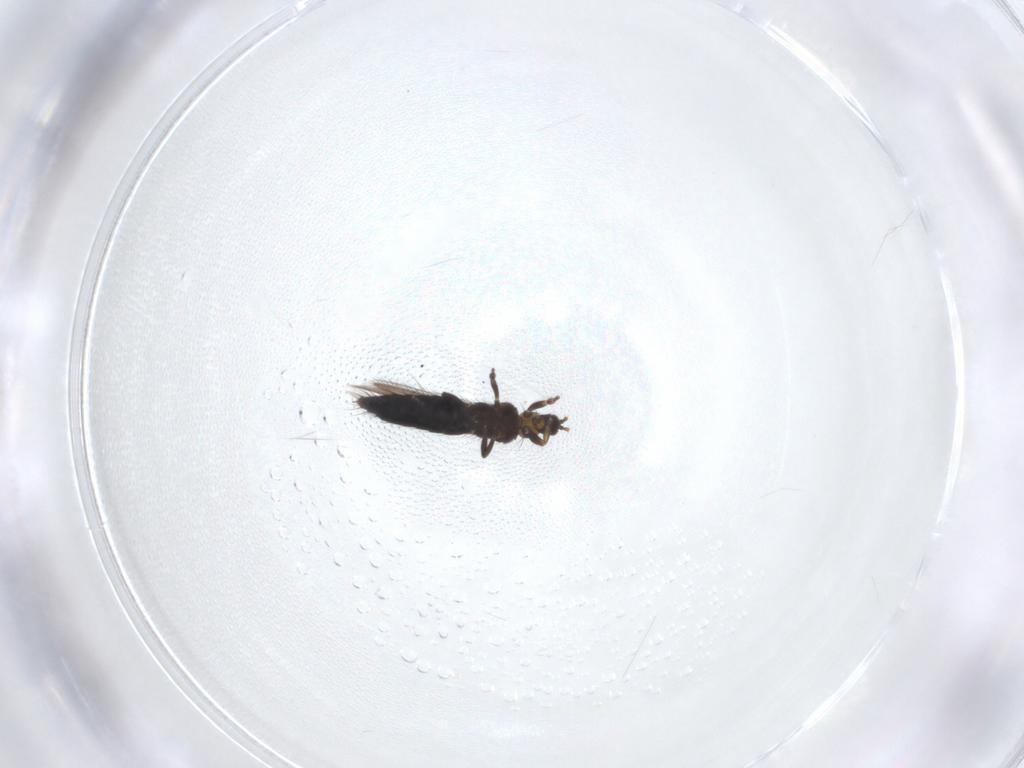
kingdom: Animalia
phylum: Arthropoda
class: Insecta
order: Thysanoptera
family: Thripidae
